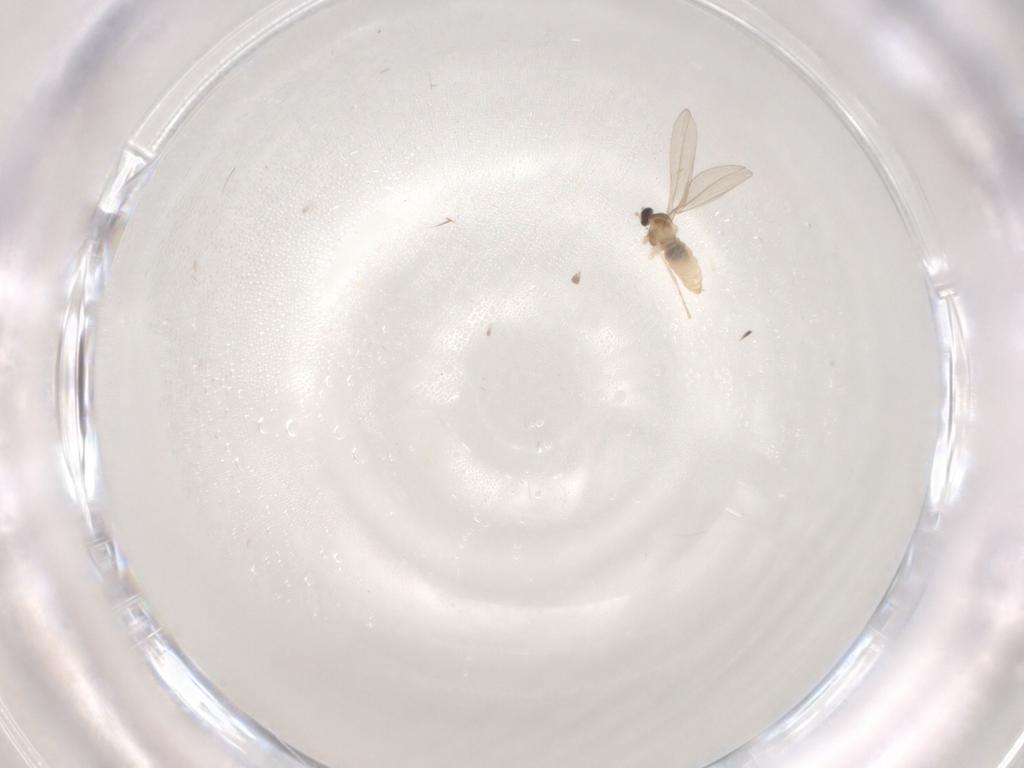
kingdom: Animalia
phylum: Arthropoda
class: Insecta
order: Diptera
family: Cecidomyiidae
